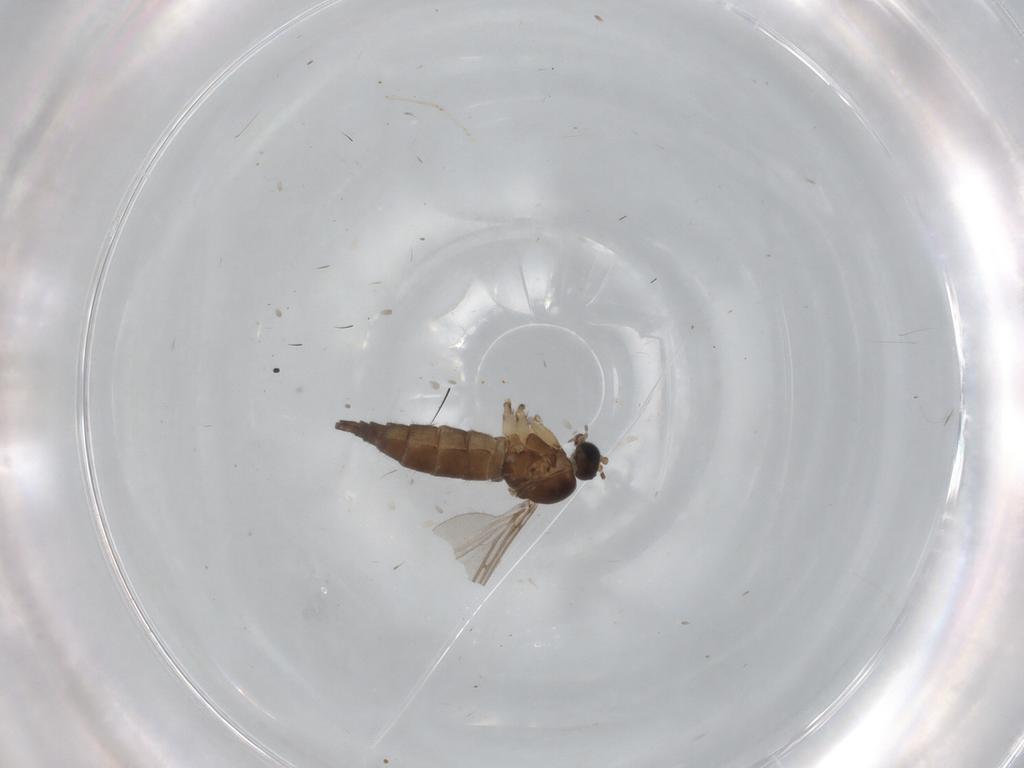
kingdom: Animalia
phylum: Arthropoda
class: Insecta
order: Diptera
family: Sciaridae
